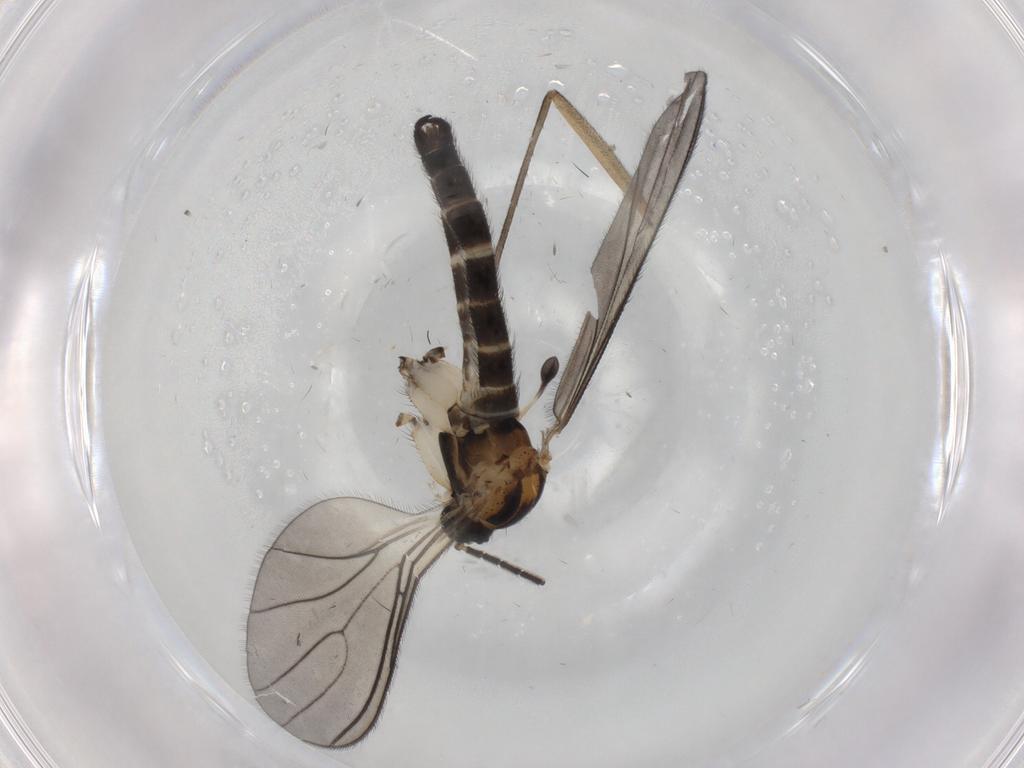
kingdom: Animalia
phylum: Arthropoda
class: Insecta
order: Diptera
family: Sciaridae
